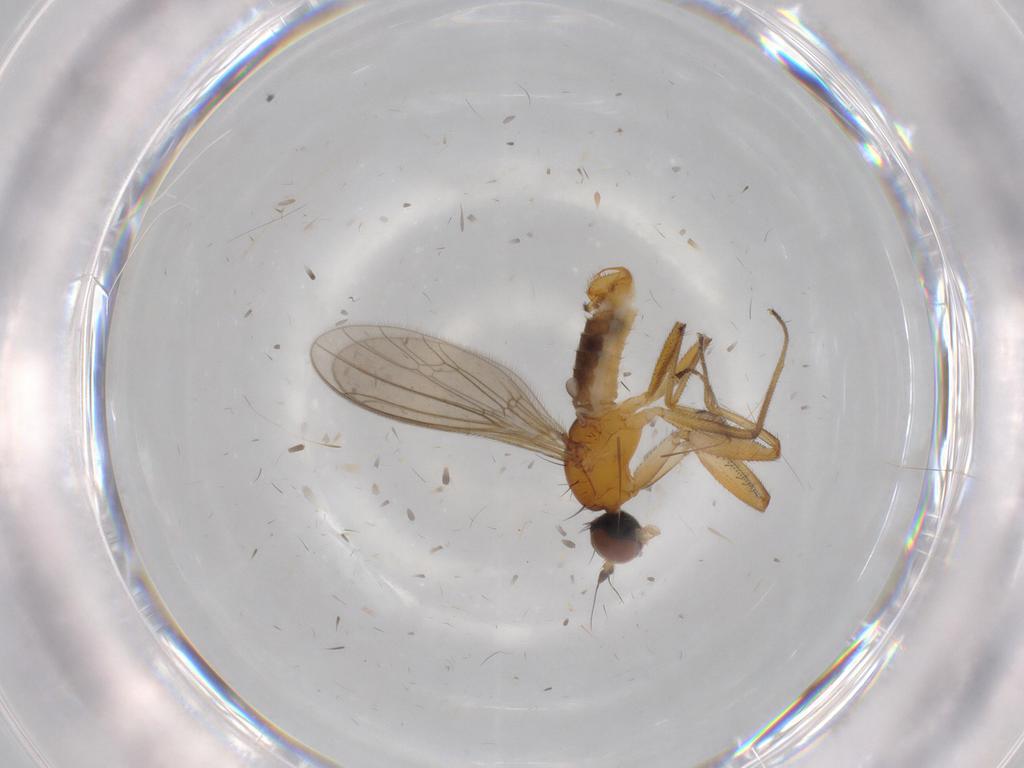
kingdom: Animalia
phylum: Arthropoda
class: Insecta
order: Diptera
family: Empididae
